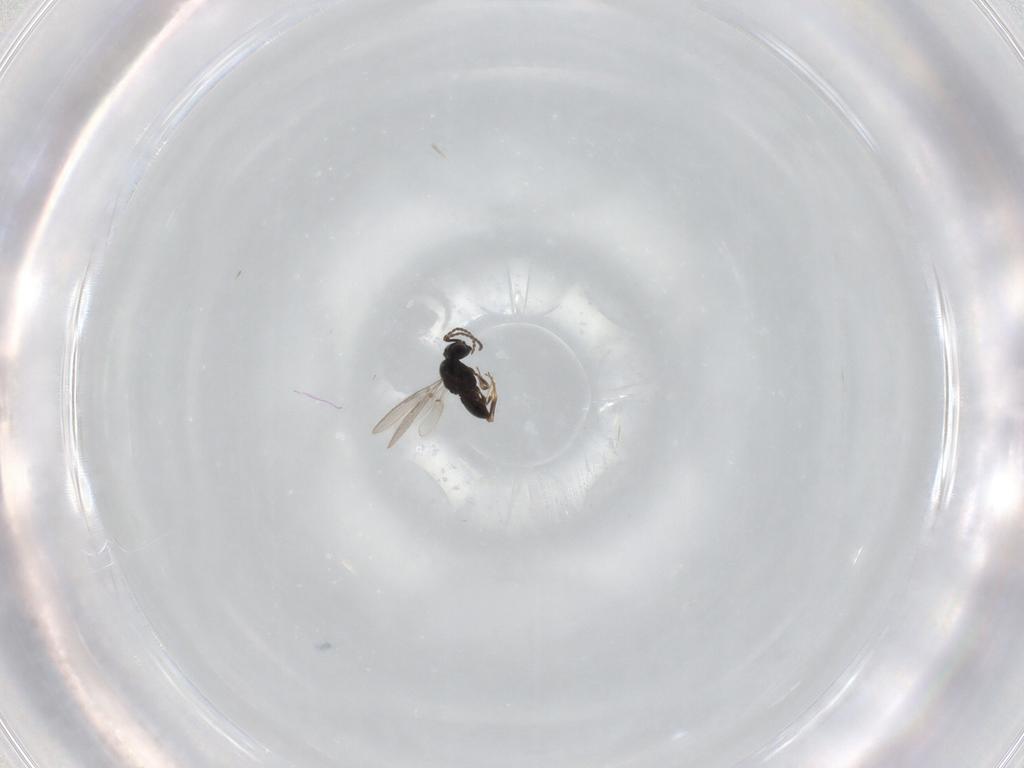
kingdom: Animalia
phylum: Arthropoda
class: Insecta
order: Hymenoptera
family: Scelionidae
